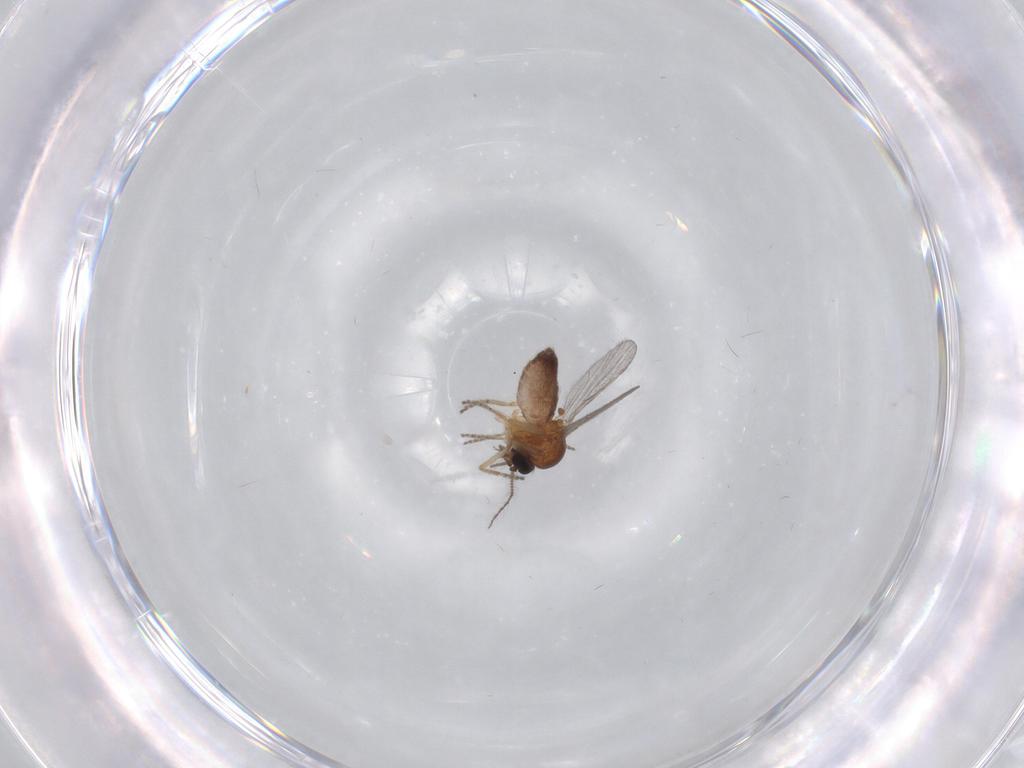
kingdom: Animalia
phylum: Arthropoda
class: Insecta
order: Diptera
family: Ceratopogonidae
